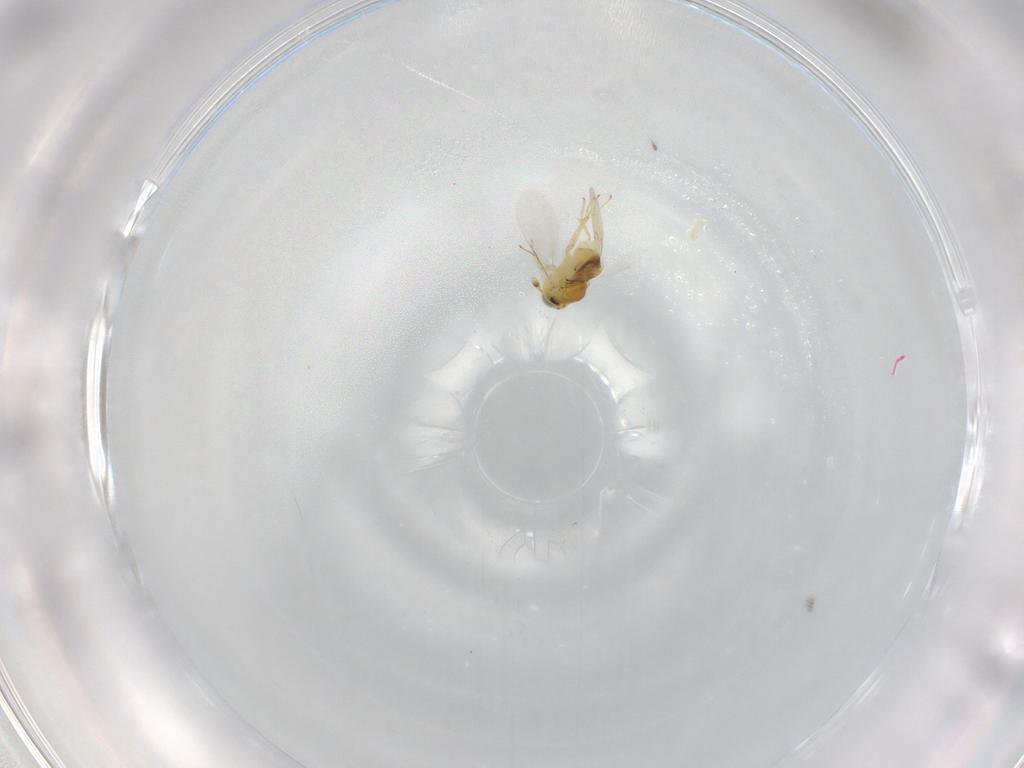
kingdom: Animalia
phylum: Arthropoda
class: Insecta
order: Hymenoptera
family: Encyrtidae
